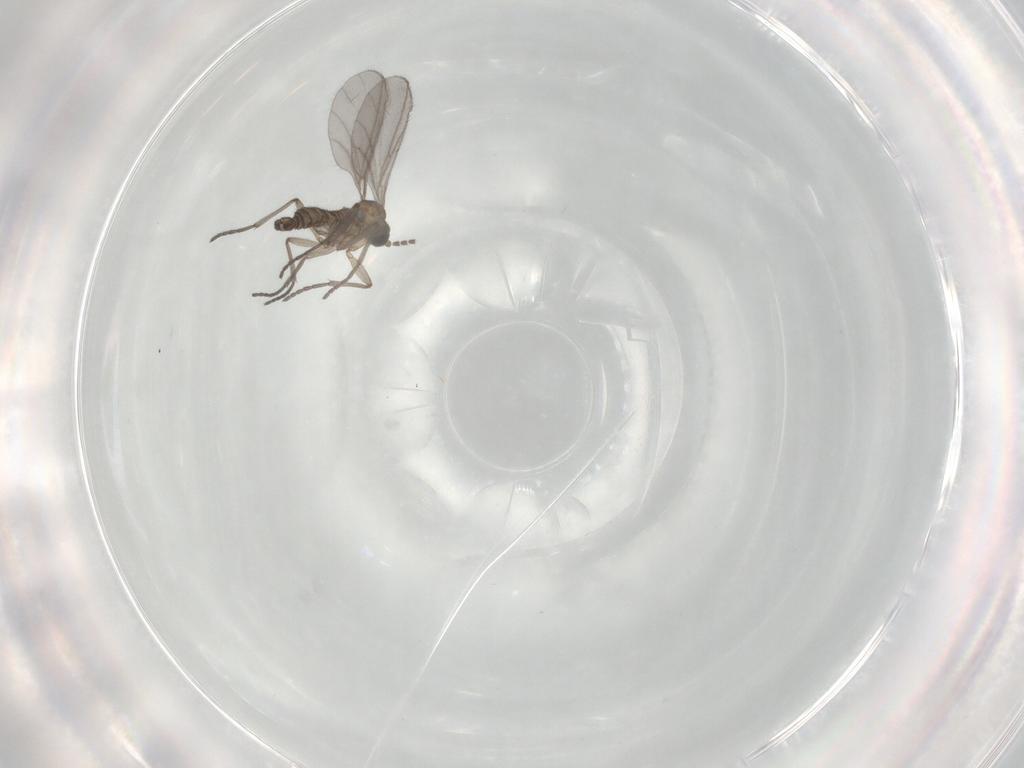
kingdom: Animalia
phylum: Arthropoda
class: Insecta
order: Diptera
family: Sciaridae
